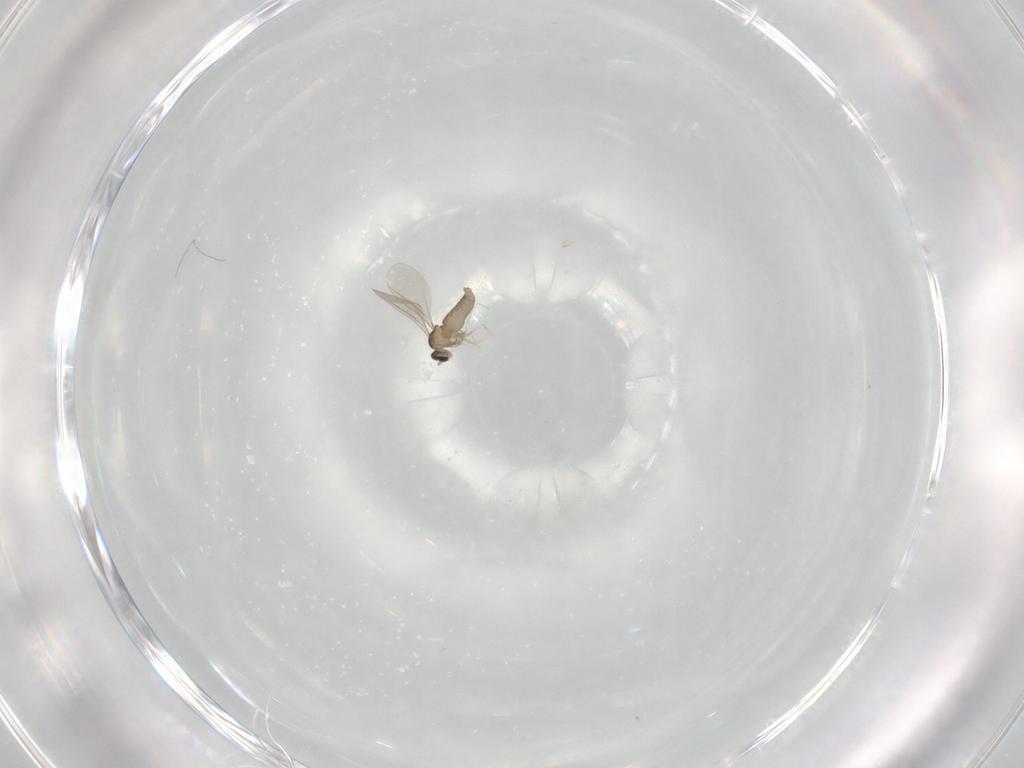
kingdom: Animalia
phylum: Arthropoda
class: Insecta
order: Diptera
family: Cecidomyiidae
